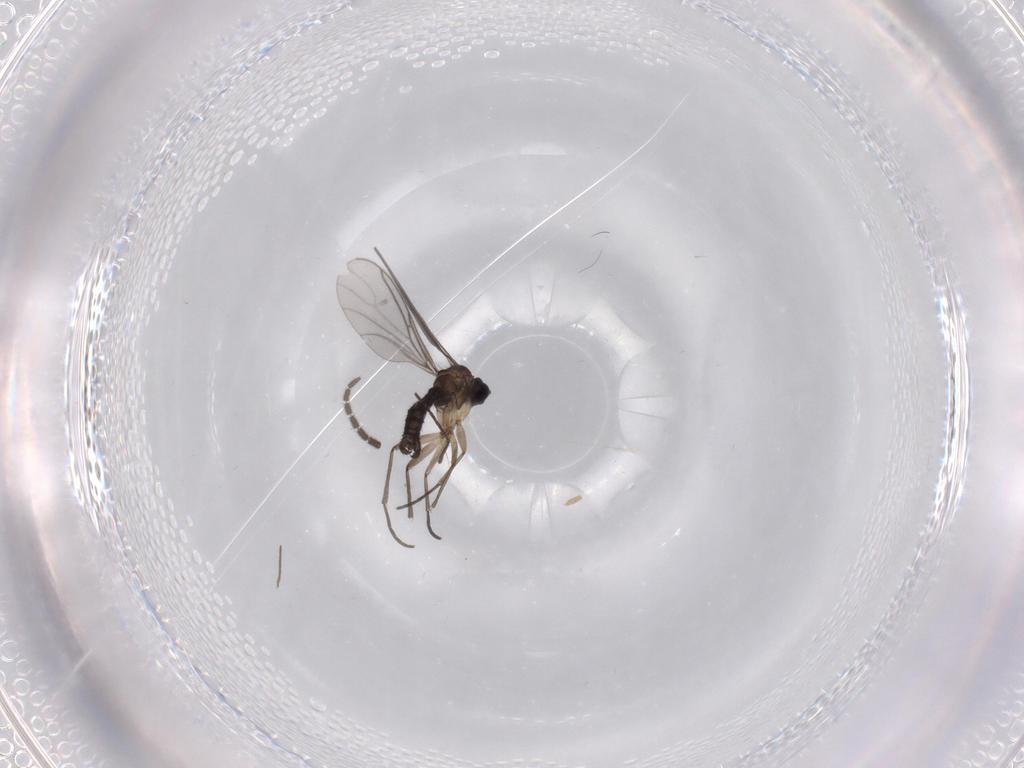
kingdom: Animalia
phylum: Arthropoda
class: Insecta
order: Diptera
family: Sciaridae
